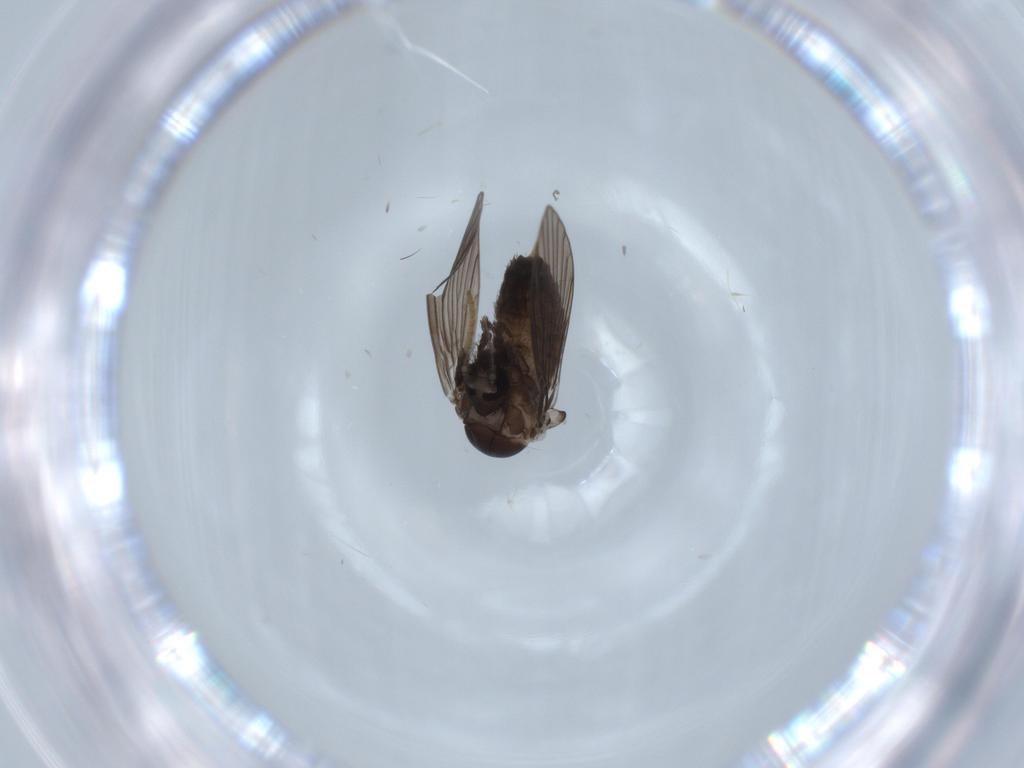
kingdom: Animalia
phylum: Arthropoda
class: Insecta
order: Diptera
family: Psychodidae
